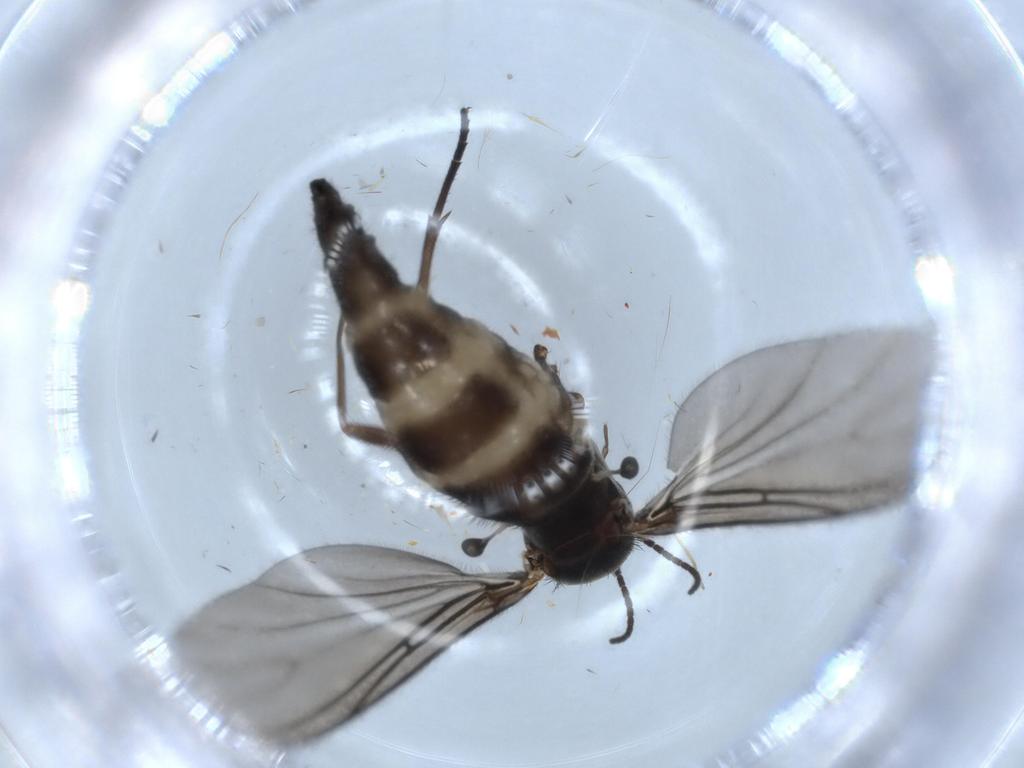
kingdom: Animalia
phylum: Arthropoda
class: Insecta
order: Diptera
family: Sciaridae
